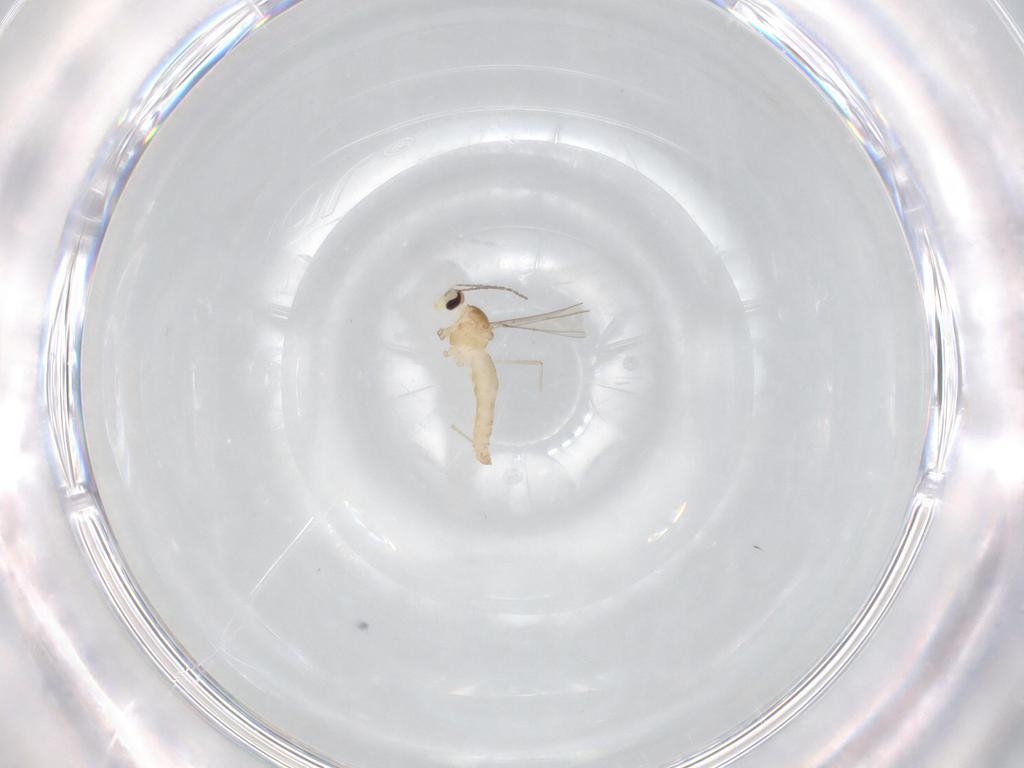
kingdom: Animalia
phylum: Arthropoda
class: Insecta
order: Diptera
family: Cecidomyiidae
